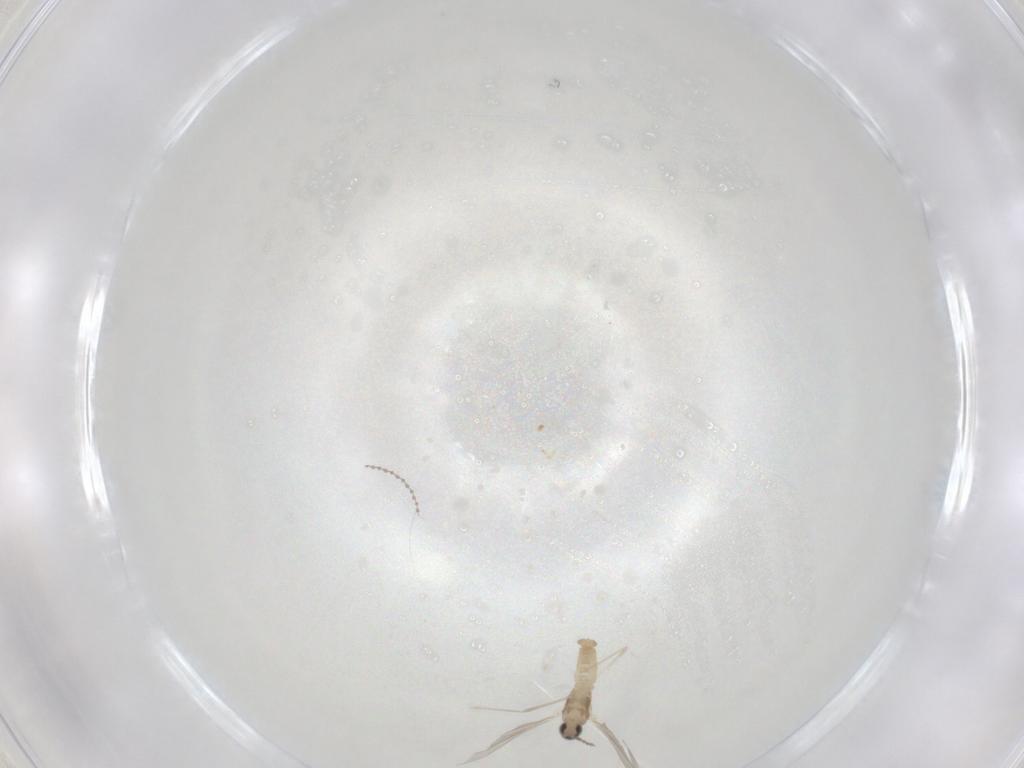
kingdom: Animalia
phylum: Arthropoda
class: Insecta
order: Diptera
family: Cecidomyiidae
